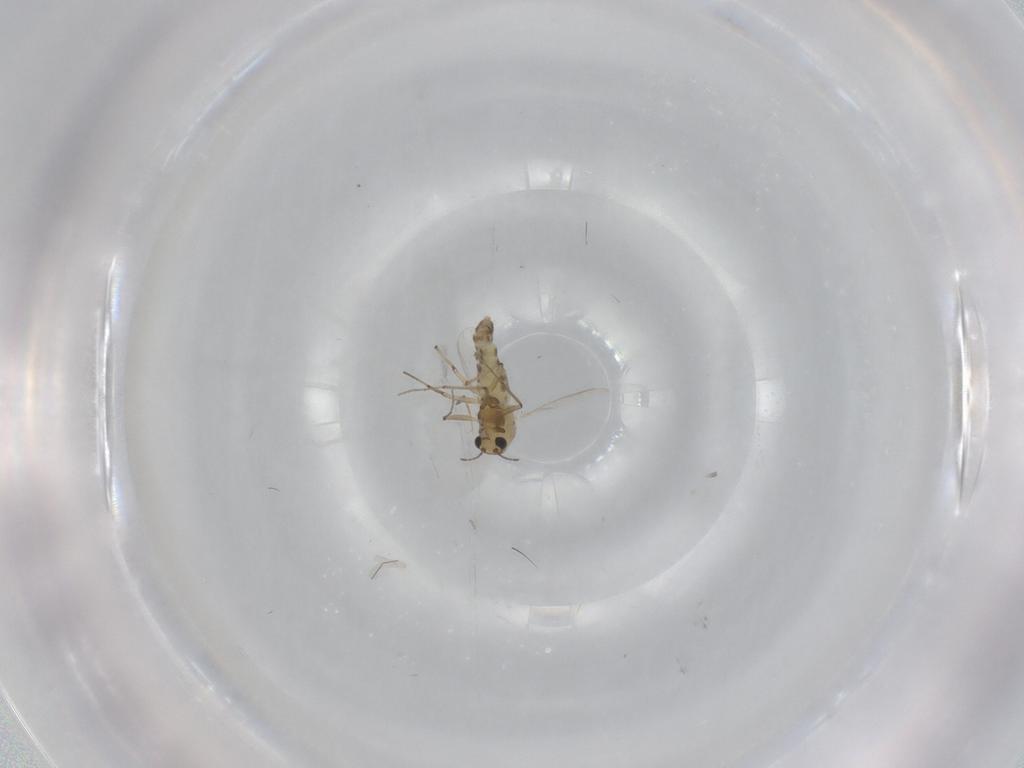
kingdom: Animalia
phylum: Arthropoda
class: Insecta
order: Diptera
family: Chironomidae
